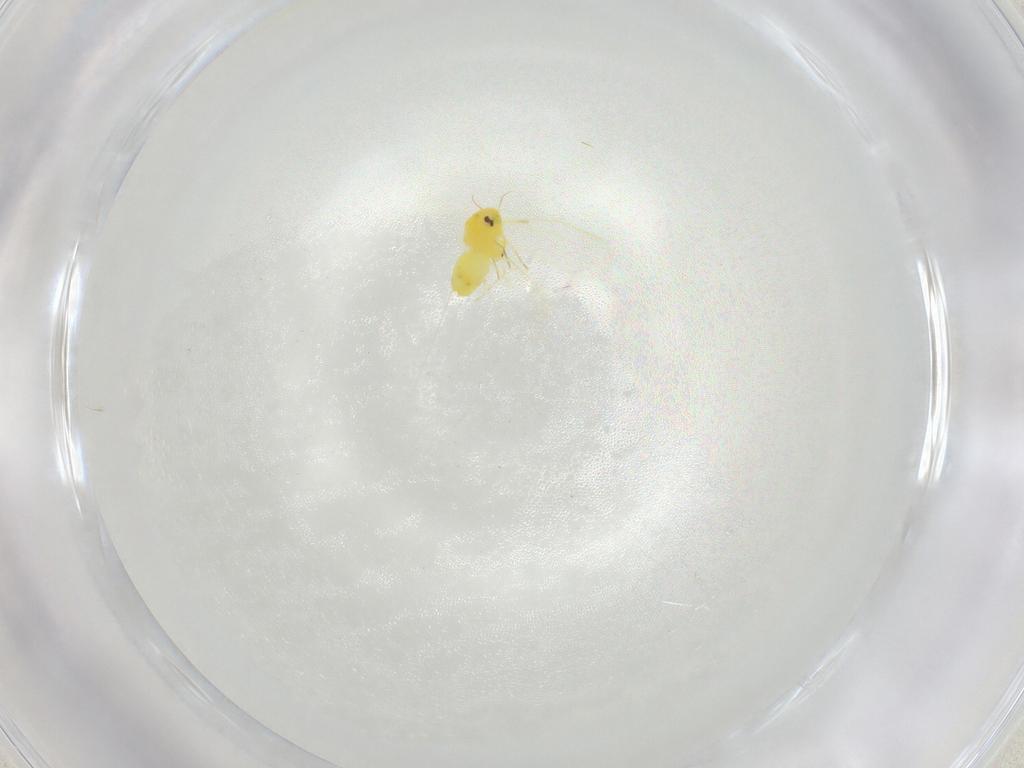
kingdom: Animalia
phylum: Arthropoda
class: Insecta
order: Hemiptera
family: Aleyrodidae
